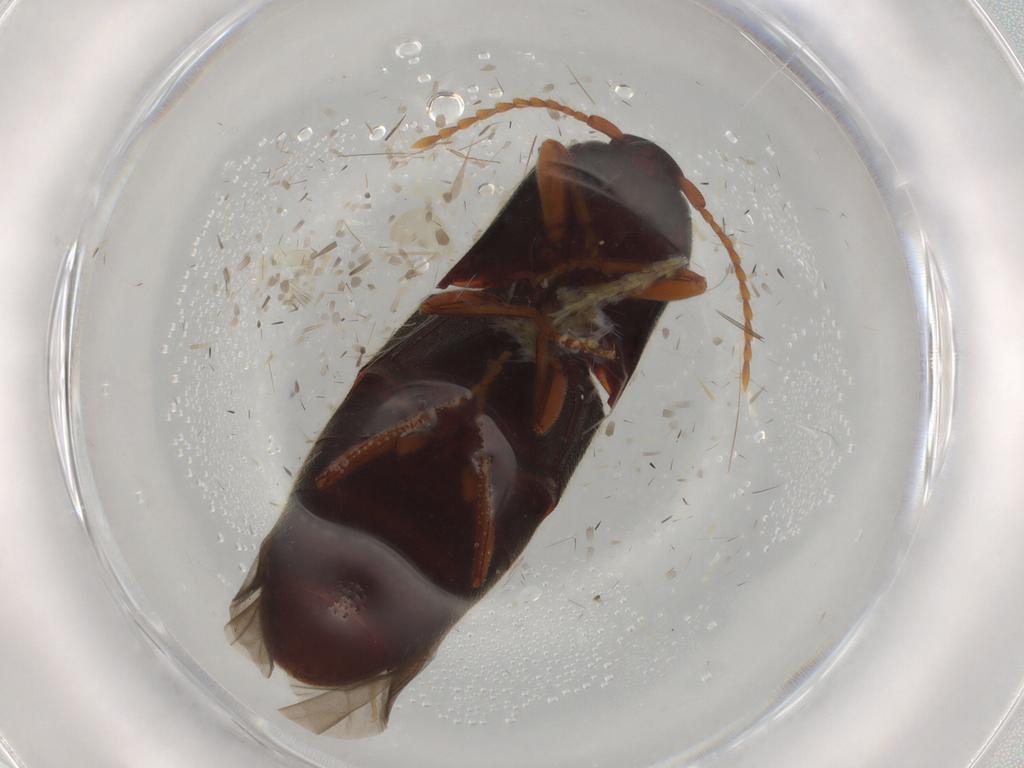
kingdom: Animalia
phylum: Arthropoda
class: Insecta
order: Coleoptera
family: Elateridae
